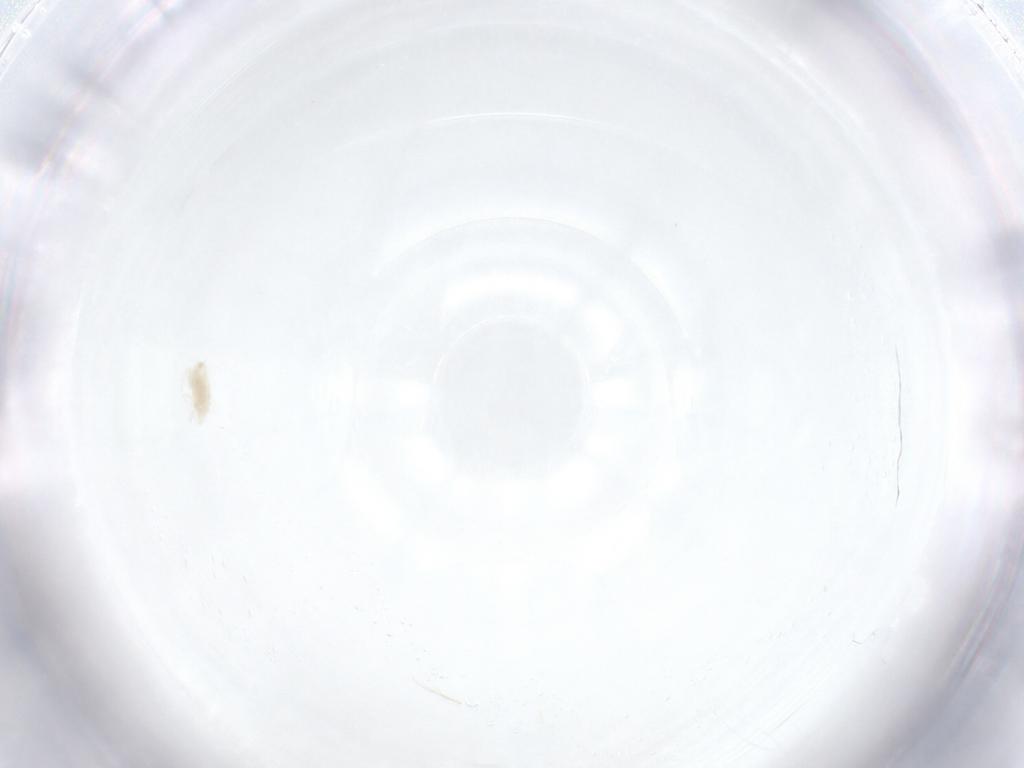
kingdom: Animalia
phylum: Arthropoda
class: Arachnida
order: Trombidiformes
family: Eupodidae
